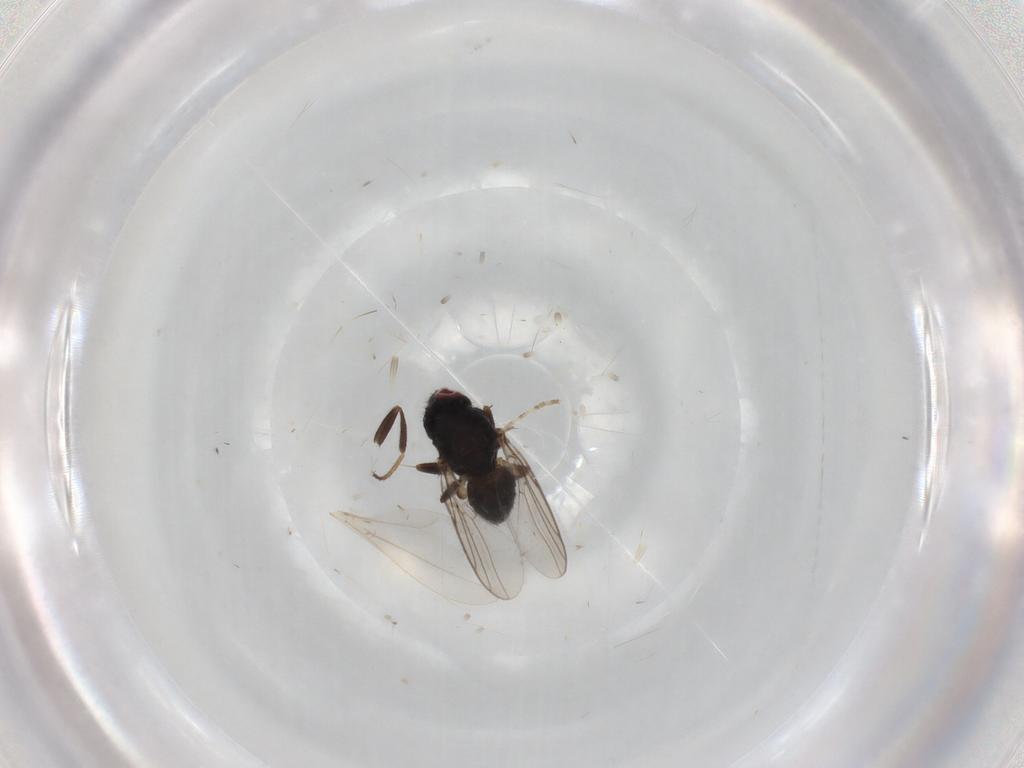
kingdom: Animalia
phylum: Arthropoda
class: Insecta
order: Diptera
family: Chloropidae
